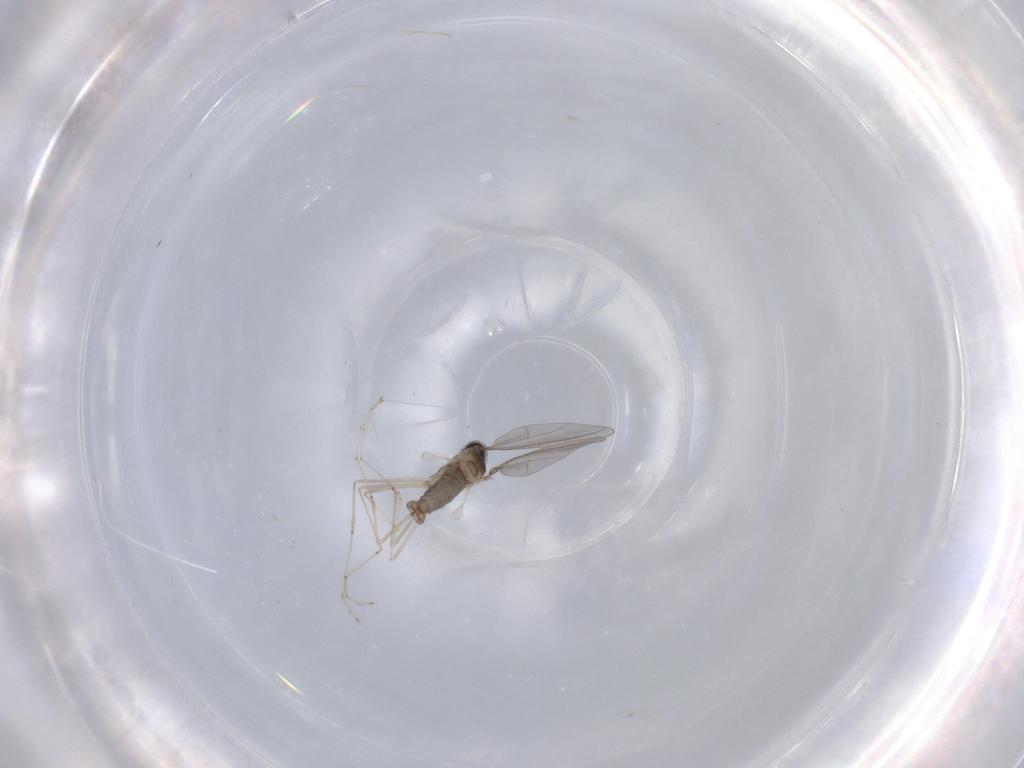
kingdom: Animalia
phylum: Arthropoda
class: Insecta
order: Diptera
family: Cecidomyiidae
